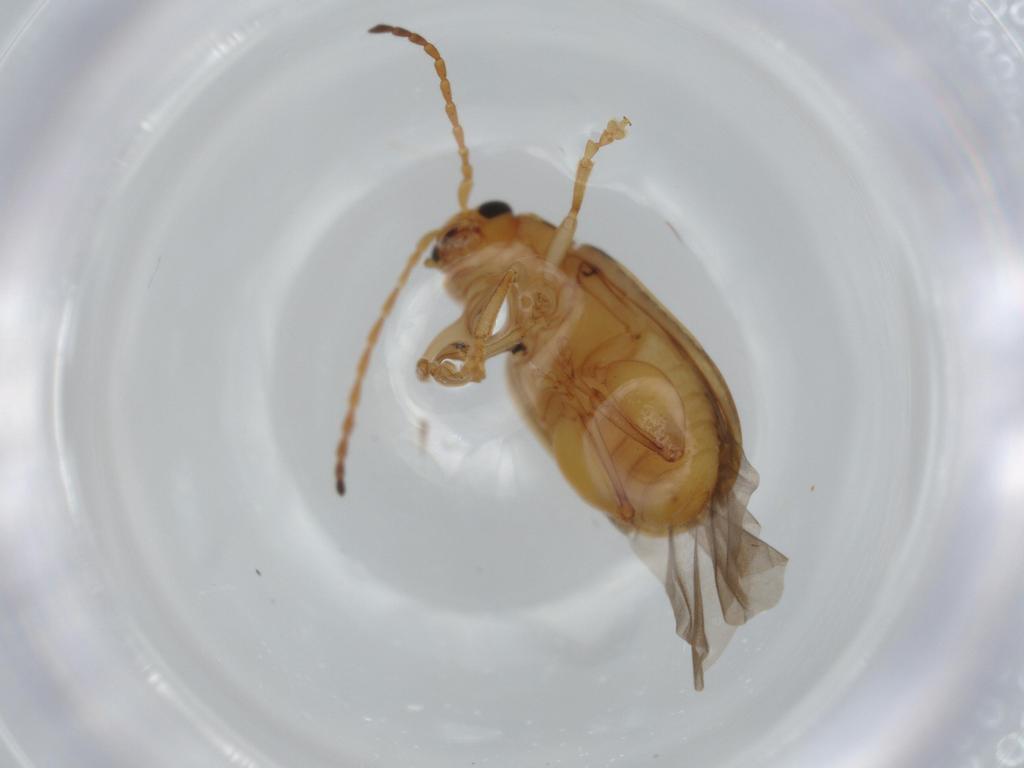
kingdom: Animalia
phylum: Arthropoda
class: Insecta
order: Coleoptera
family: Chrysomelidae
